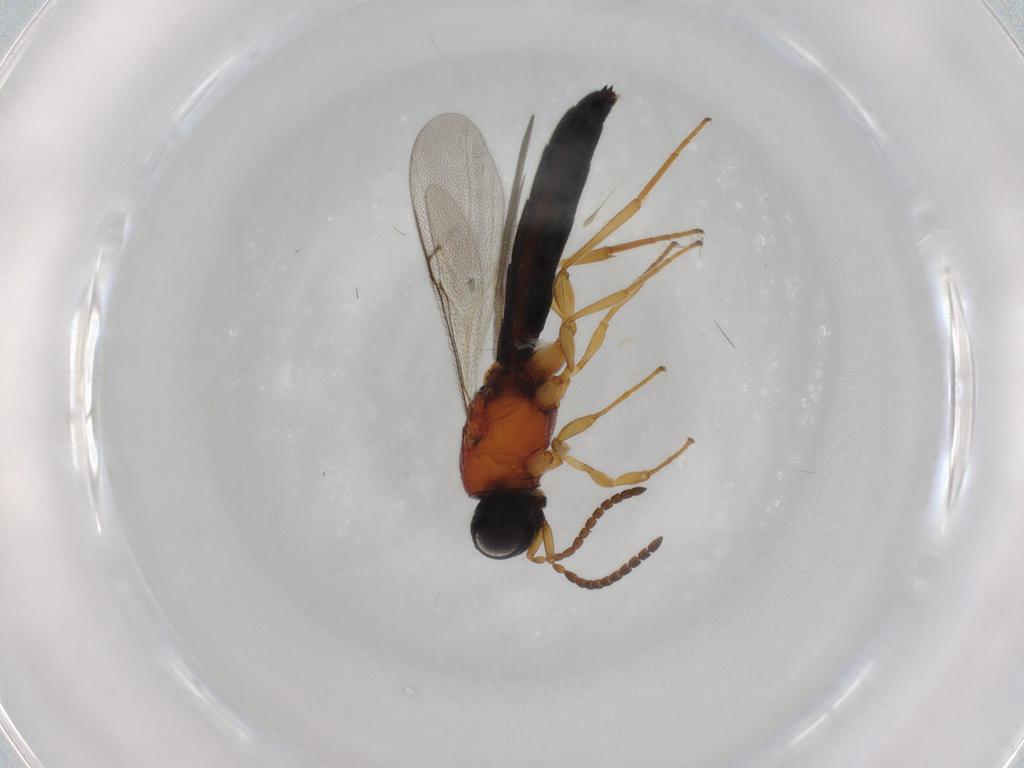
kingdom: Animalia
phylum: Arthropoda
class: Insecta
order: Hymenoptera
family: Scelionidae
